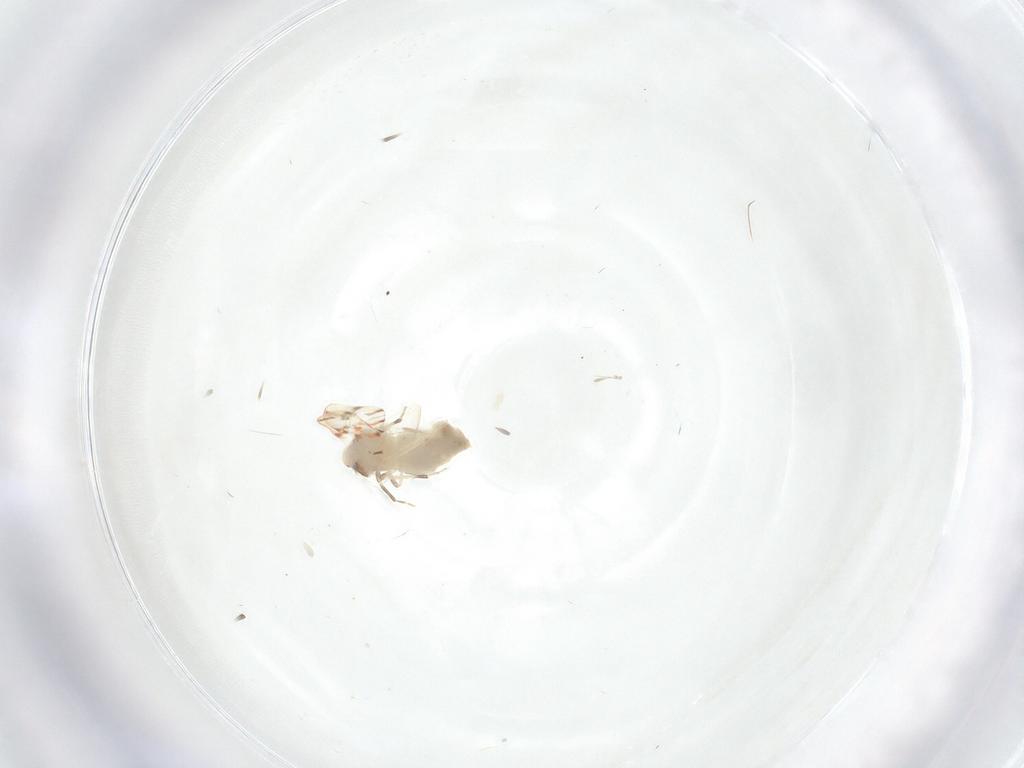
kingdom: Animalia
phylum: Arthropoda
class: Insecta
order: Hemiptera
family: Aleyrodidae
